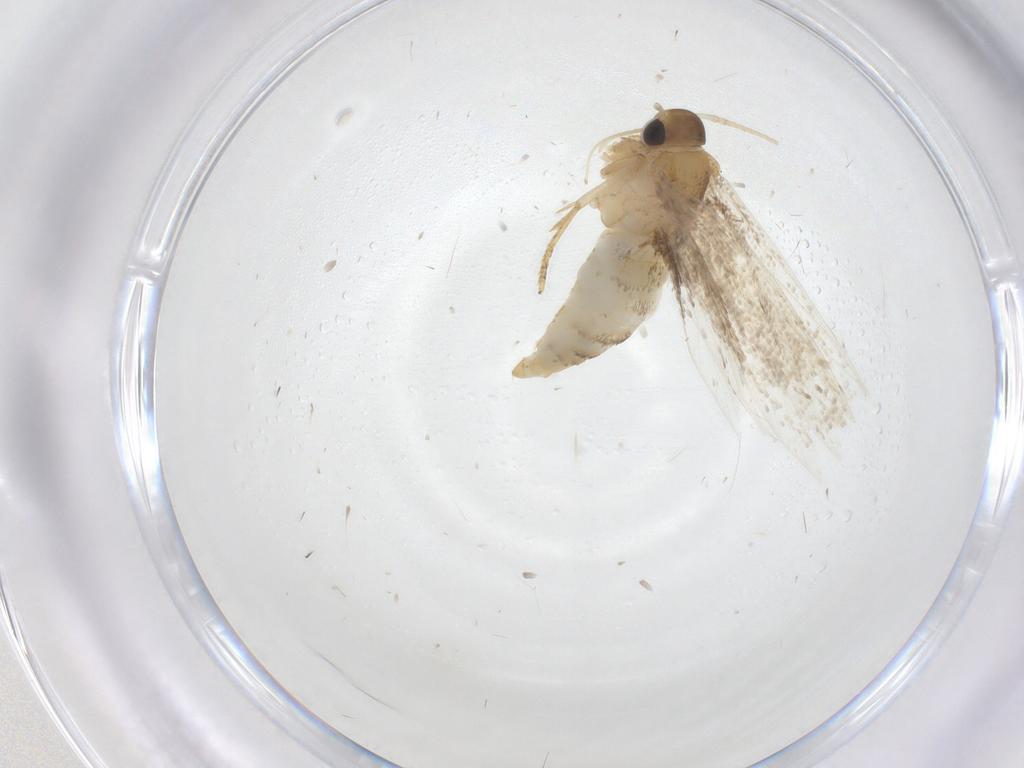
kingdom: Animalia
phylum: Arthropoda
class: Insecta
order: Lepidoptera
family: Oecophoridae
